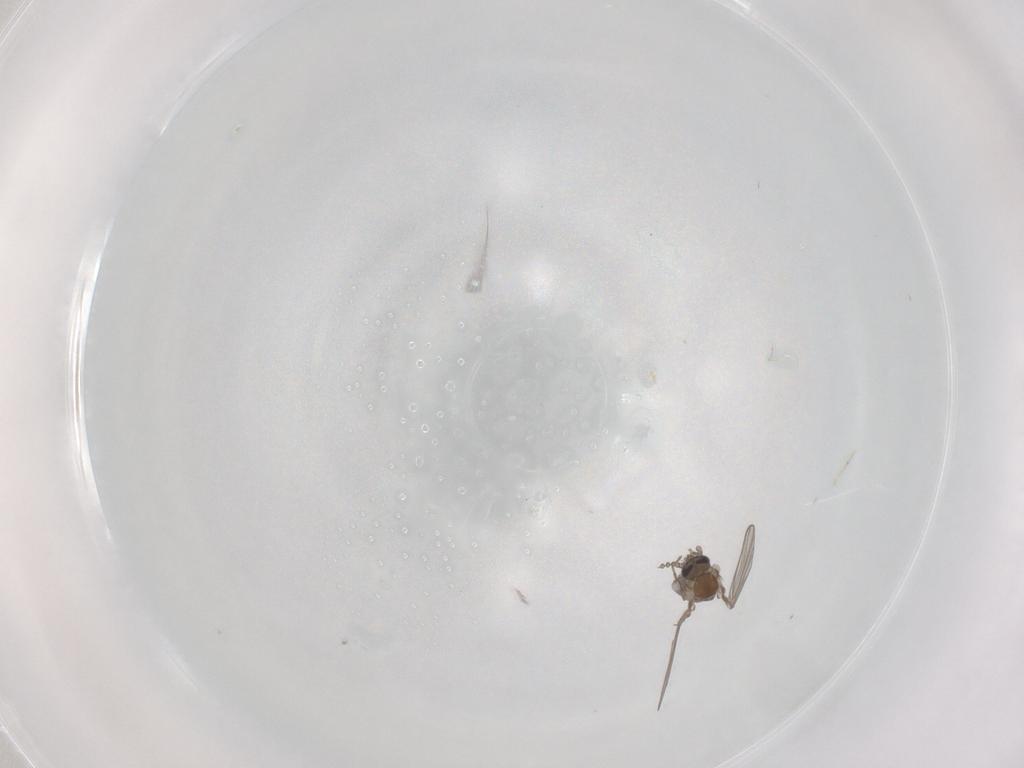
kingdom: Animalia
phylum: Arthropoda
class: Insecta
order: Diptera
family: Psychodidae
